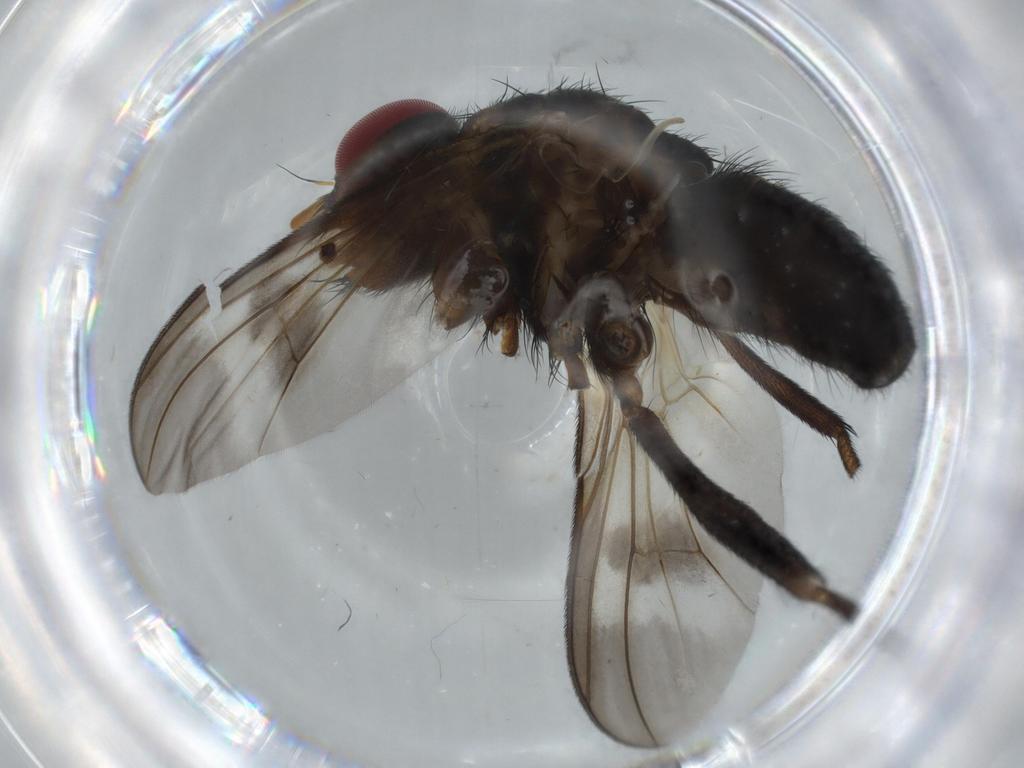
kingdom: Animalia
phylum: Arthropoda
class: Insecta
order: Diptera
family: Calliphoridae
